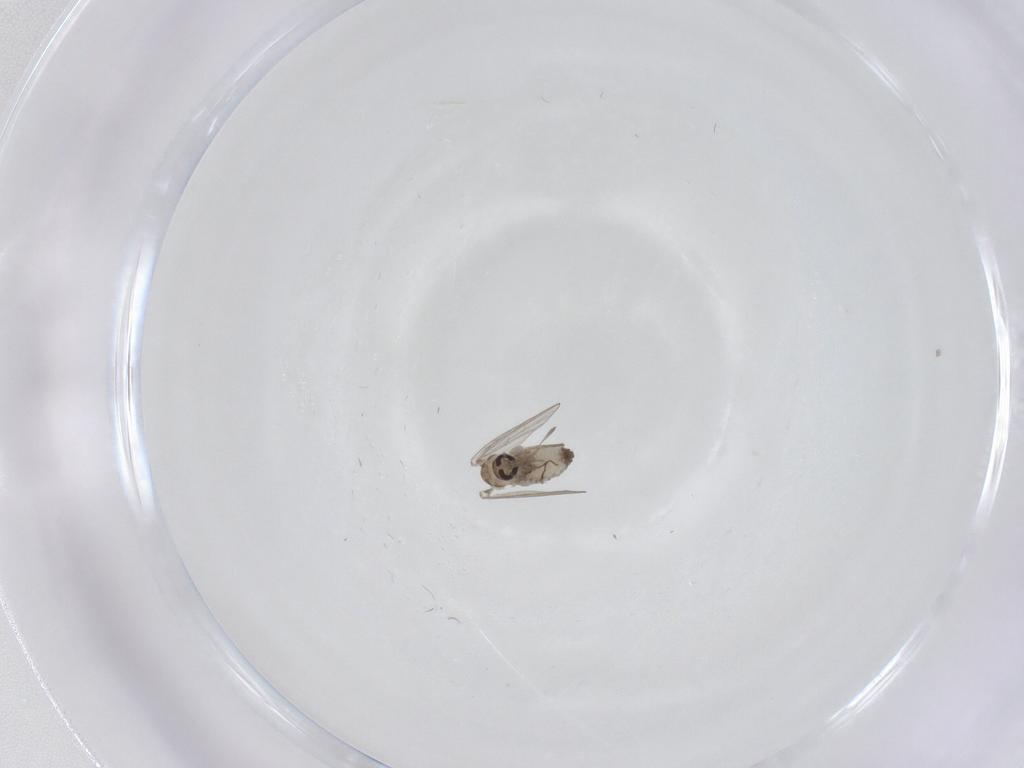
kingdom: Animalia
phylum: Arthropoda
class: Insecta
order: Diptera
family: Psychodidae
